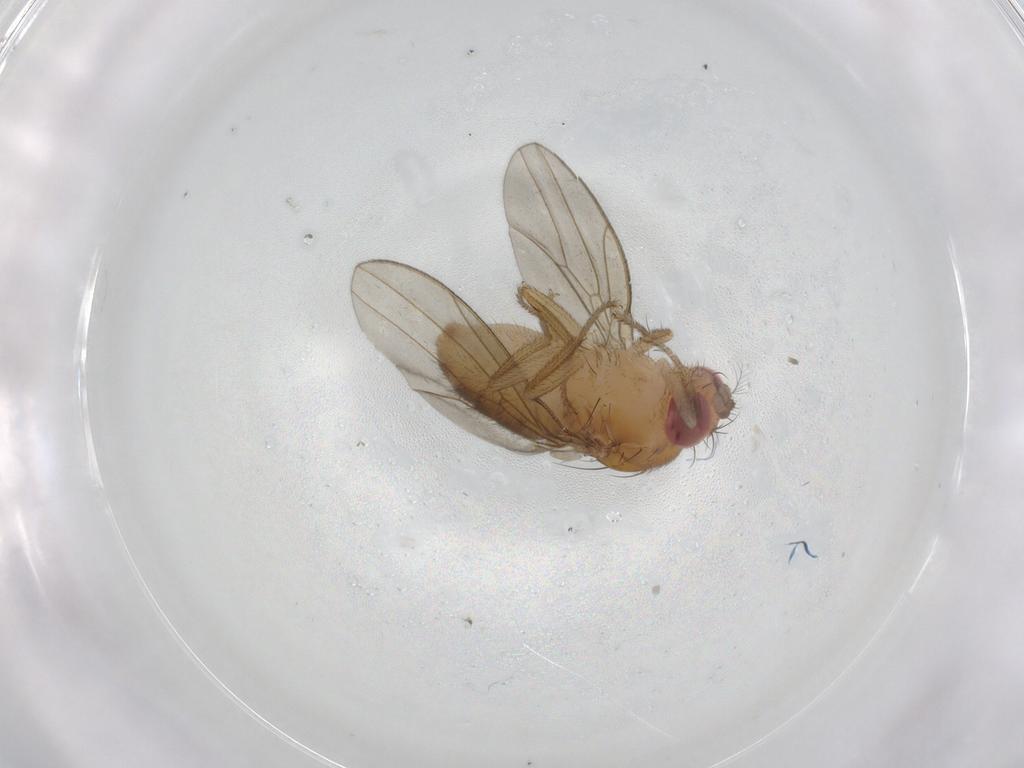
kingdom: Animalia
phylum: Arthropoda
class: Insecta
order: Diptera
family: Drosophilidae
